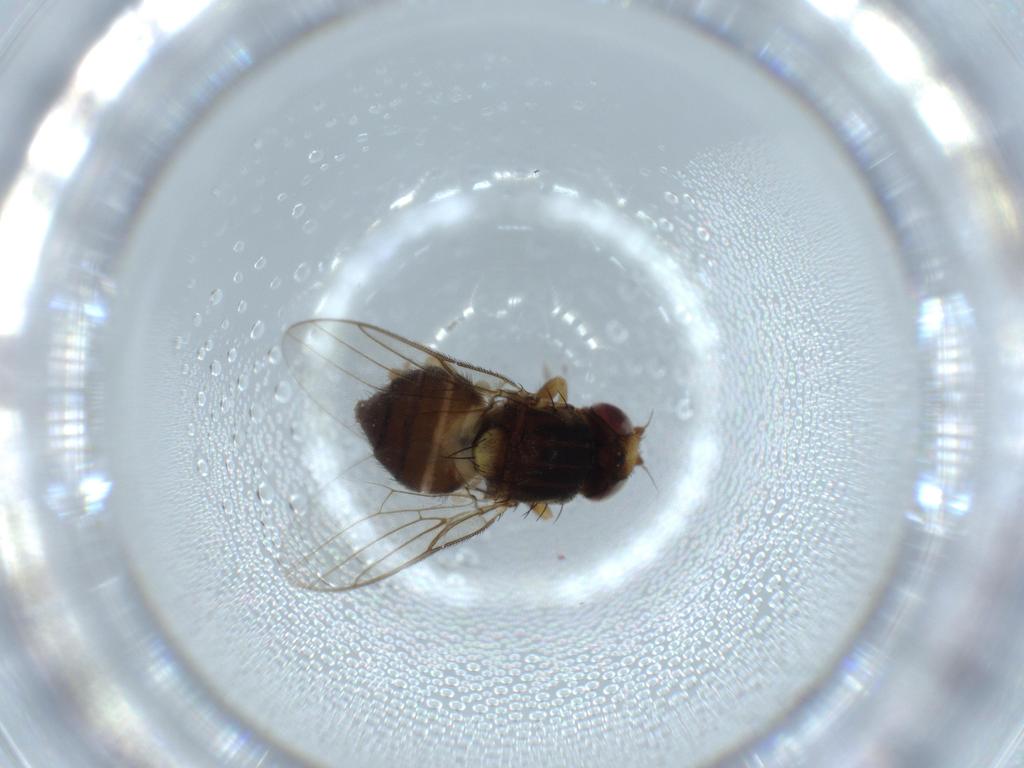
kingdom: Animalia
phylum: Arthropoda
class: Insecta
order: Diptera
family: Chloropidae
